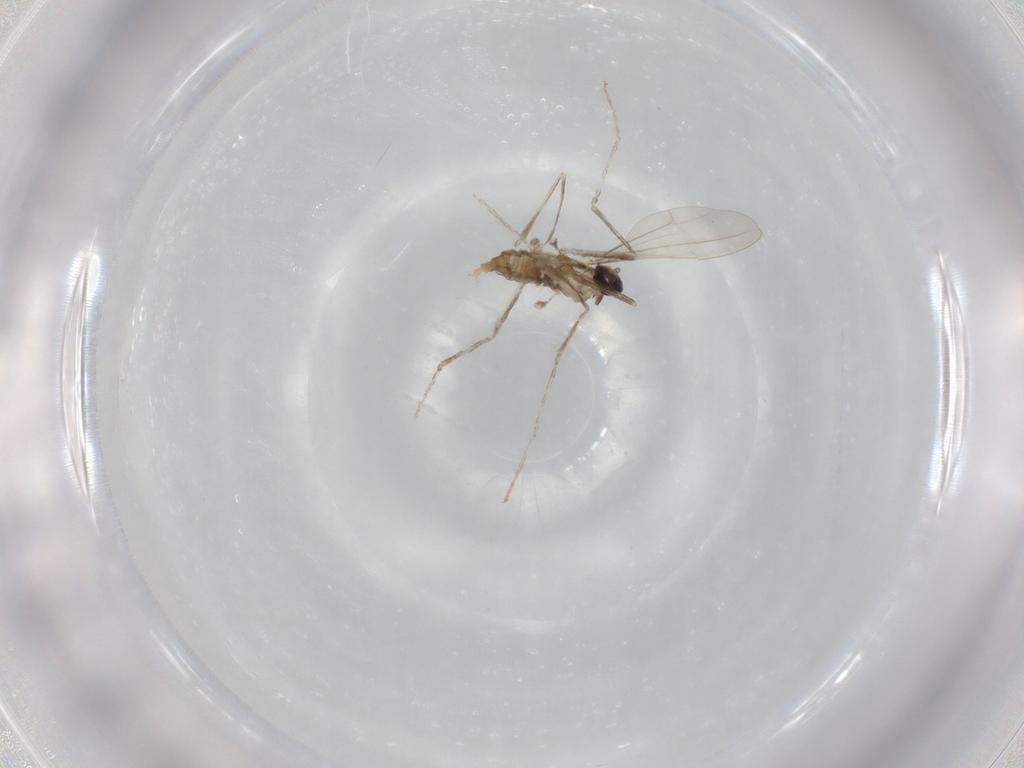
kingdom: Animalia
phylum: Arthropoda
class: Insecta
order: Diptera
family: Cecidomyiidae
